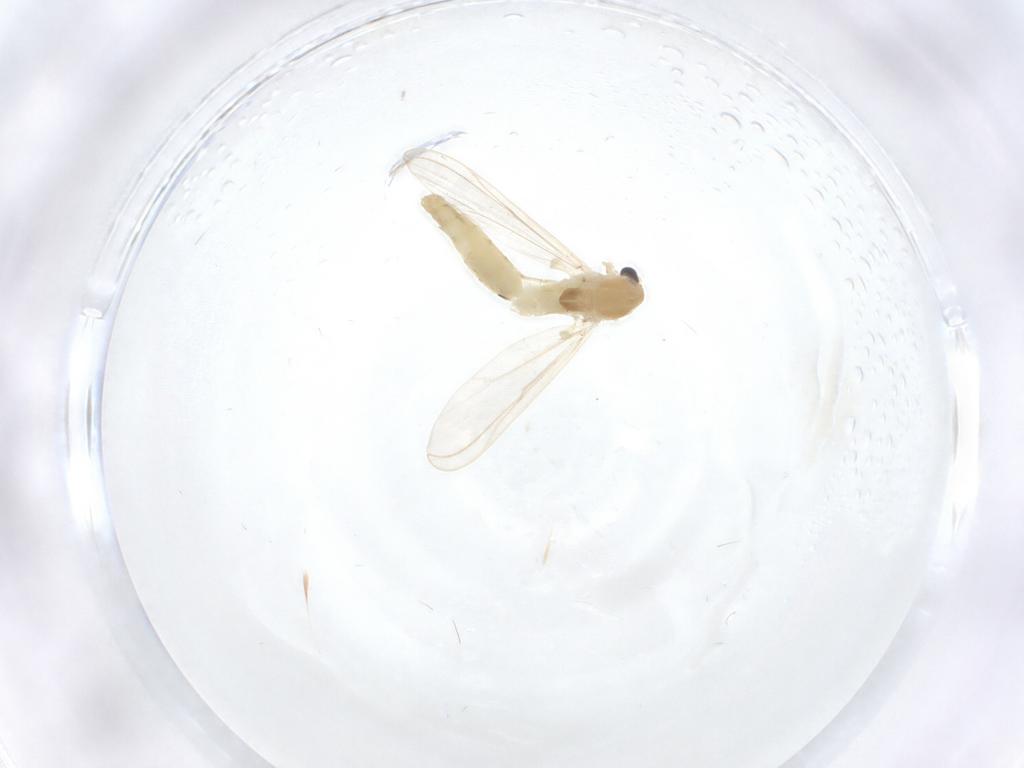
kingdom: Animalia
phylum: Arthropoda
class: Insecta
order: Diptera
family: Chironomidae
